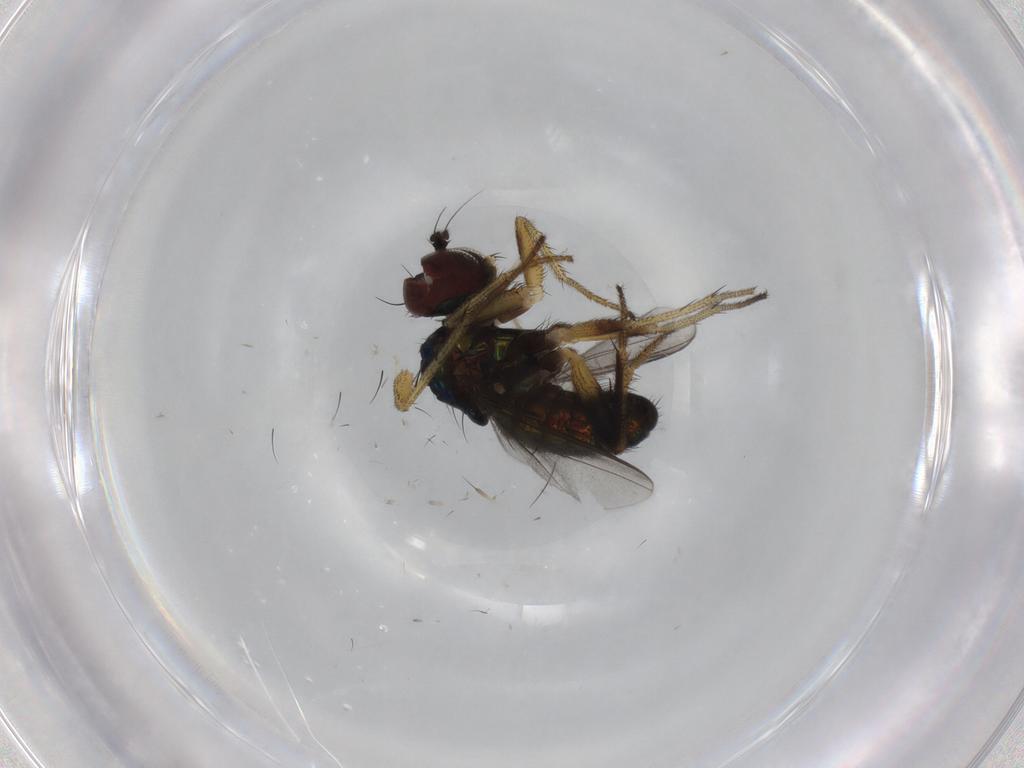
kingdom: Animalia
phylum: Arthropoda
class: Insecta
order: Diptera
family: Dolichopodidae
